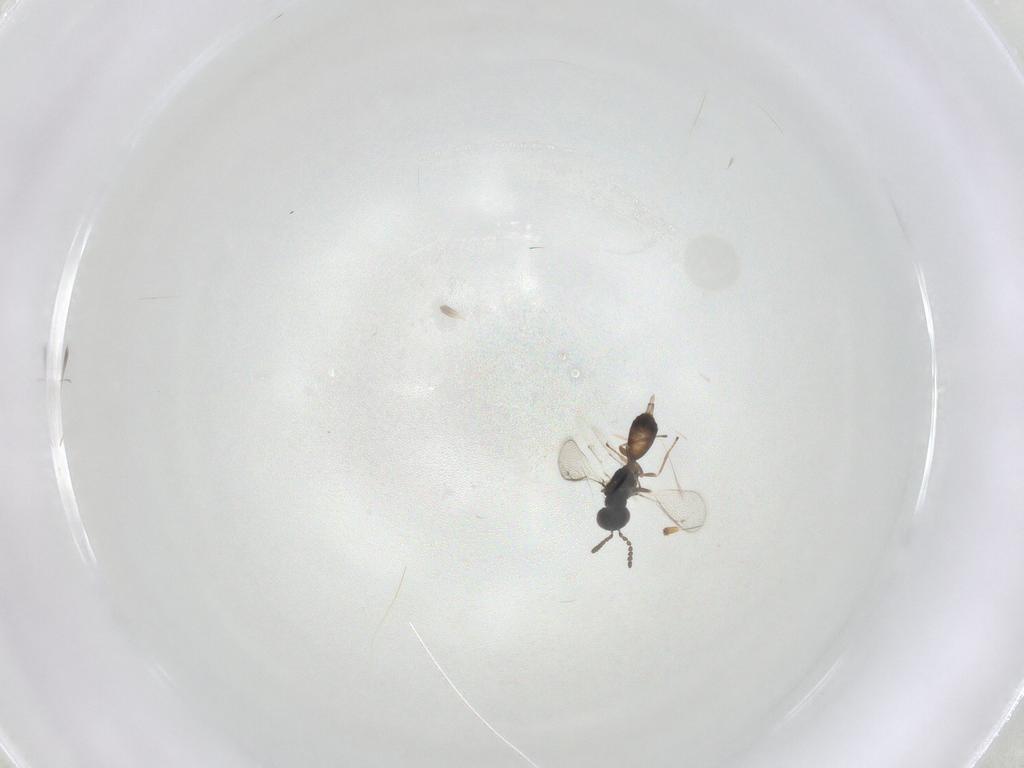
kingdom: Animalia
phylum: Arthropoda
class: Insecta
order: Hymenoptera
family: Eulophidae
